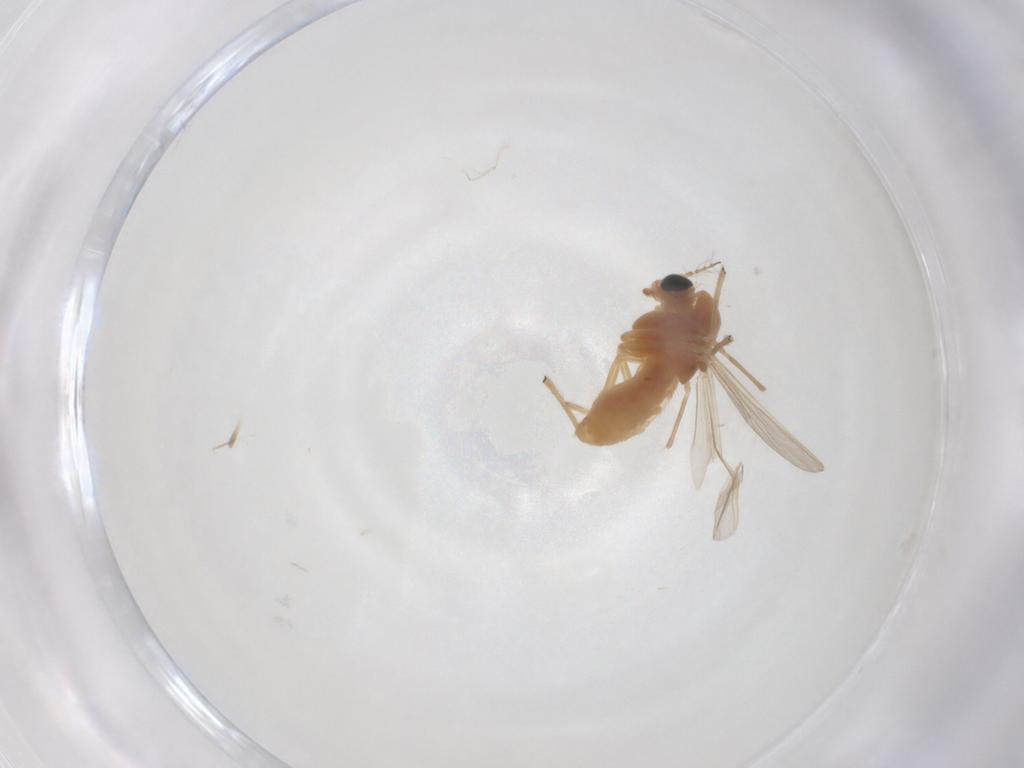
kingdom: Animalia
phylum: Arthropoda
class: Insecta
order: Diptera
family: Chironomidae
